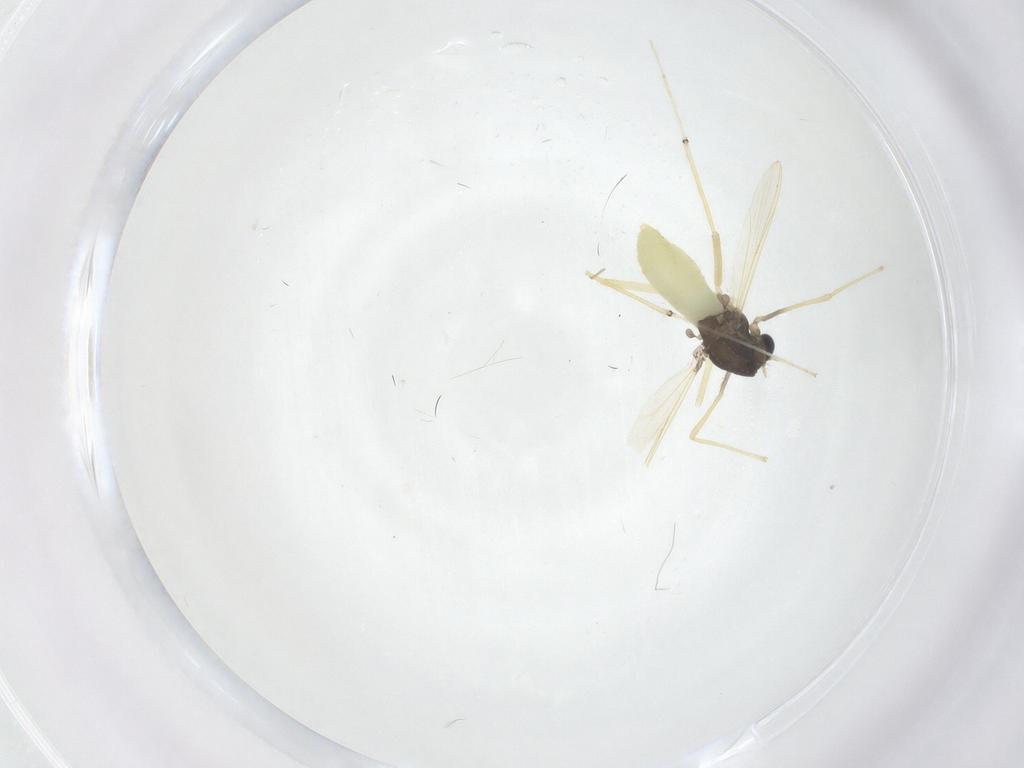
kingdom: Animalia
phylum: Arthropoda
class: Insecta
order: Diptera
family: Chironomidae
